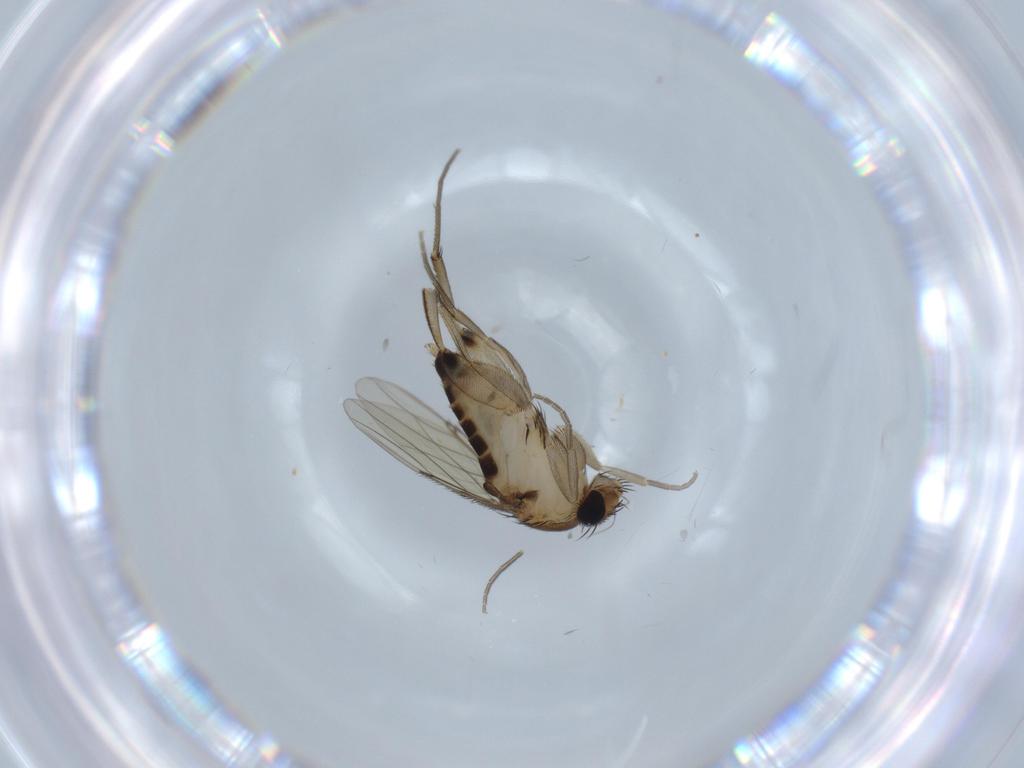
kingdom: Animalia
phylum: Arthropoda
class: Insecta
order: Diptera
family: Phoridae
